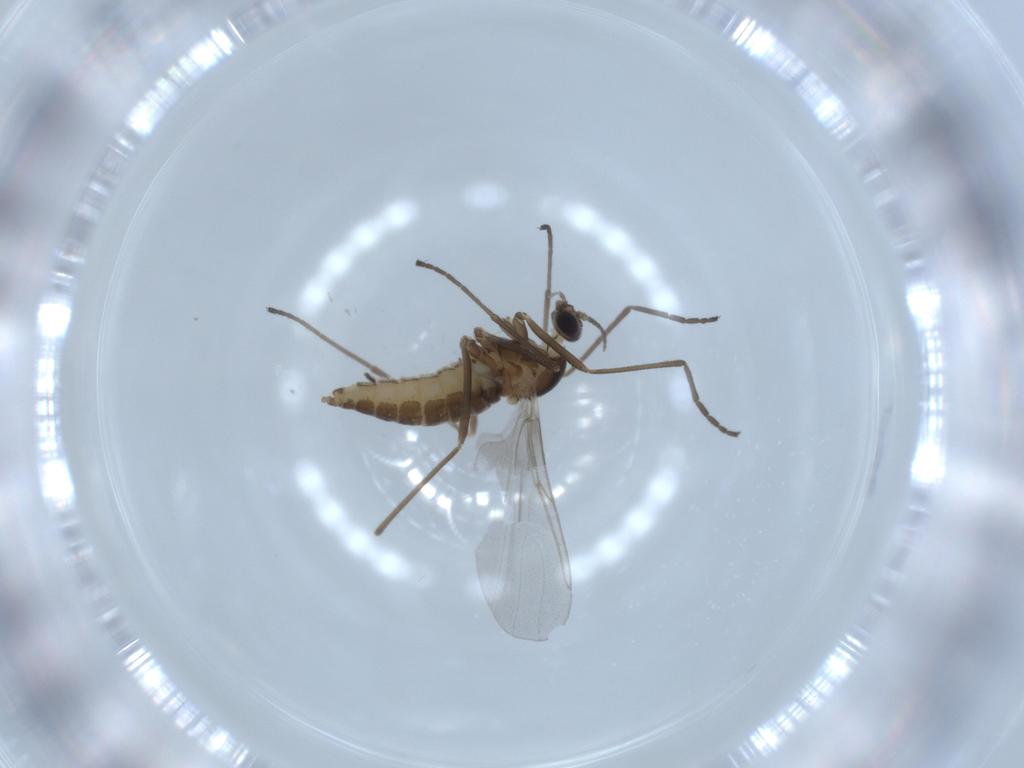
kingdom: Animalia
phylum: Arthropoda
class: Insecta
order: Diptera
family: Cecidomyiidae
